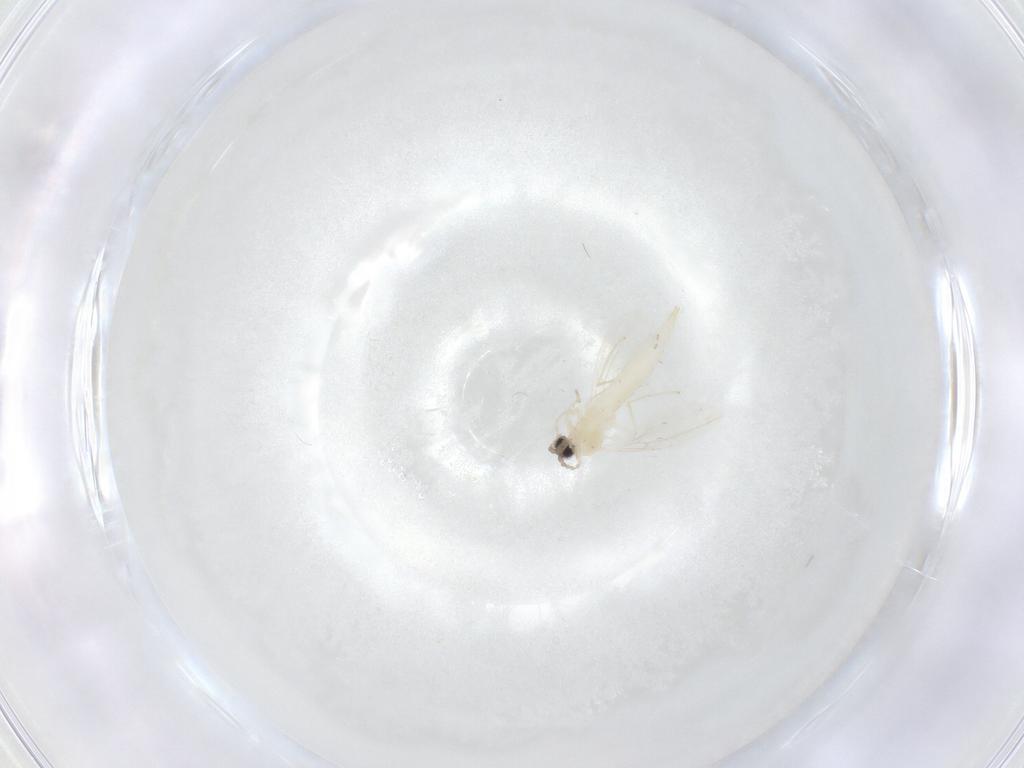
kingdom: Animalia
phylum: Arthropoda
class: Insecta
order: Diptera
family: Cecidomyiidae
